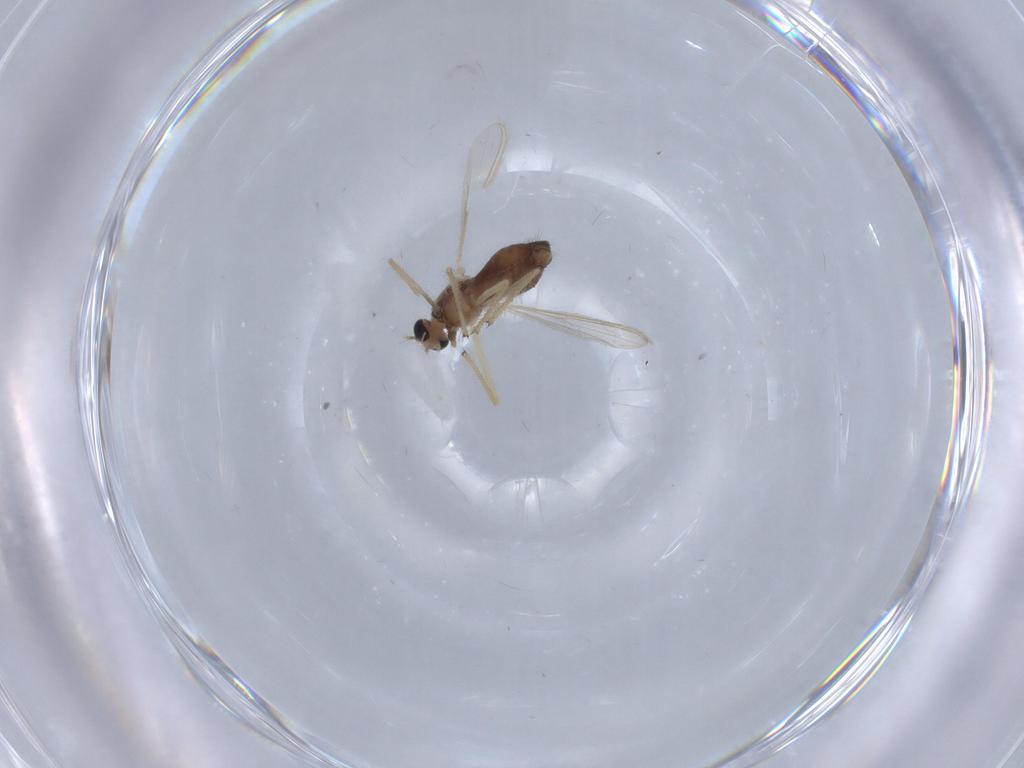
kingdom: Animalia
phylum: Arthropoda
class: Insecta
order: Diptera
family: Chironomidae
